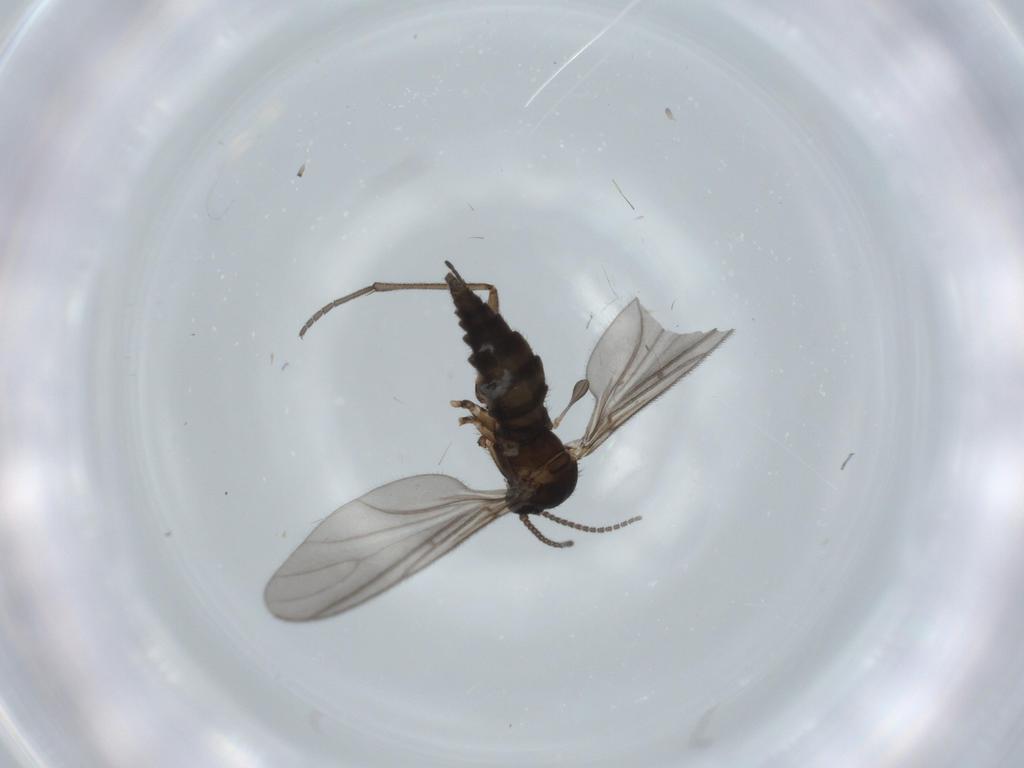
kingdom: Animalia
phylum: Arthropoda
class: Insecta
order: Diptera
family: Sciaridae
